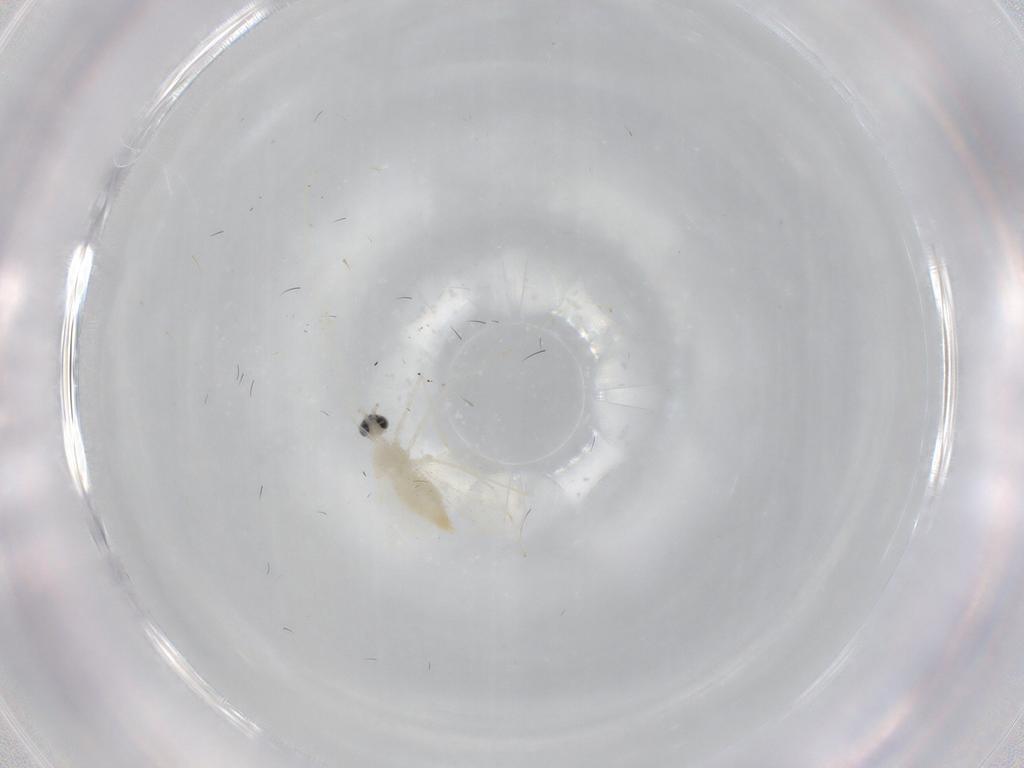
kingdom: Animalia
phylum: Arthropoda
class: Insecta
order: Diptera
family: Cecidomyiidae
